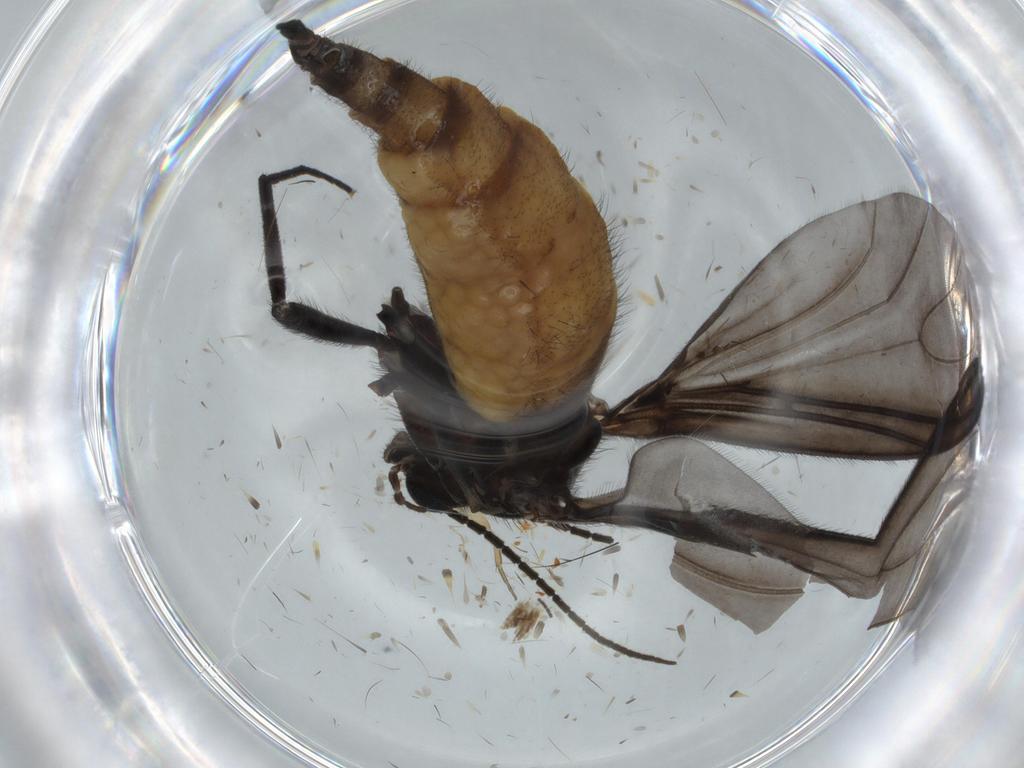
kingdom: Animalia
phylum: Arthropoda
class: Insecta
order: Diptera
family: Chironomidae
